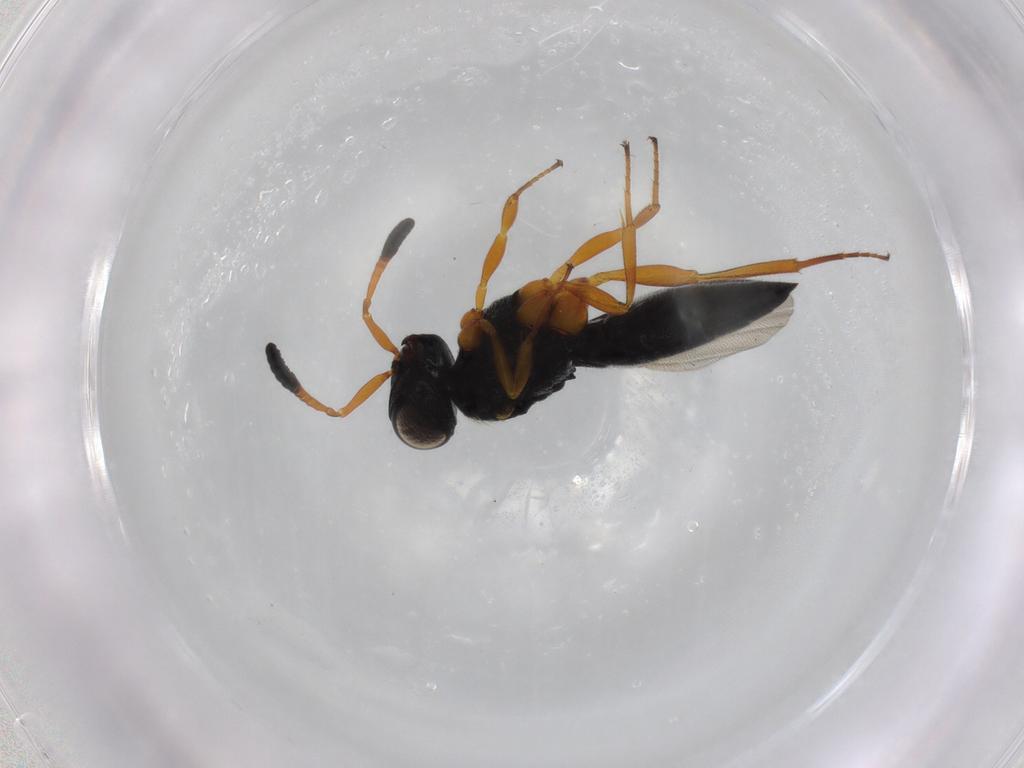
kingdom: Animalia
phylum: Arthropoda
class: Insecta
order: Hymenoptera
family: Scelionidae
